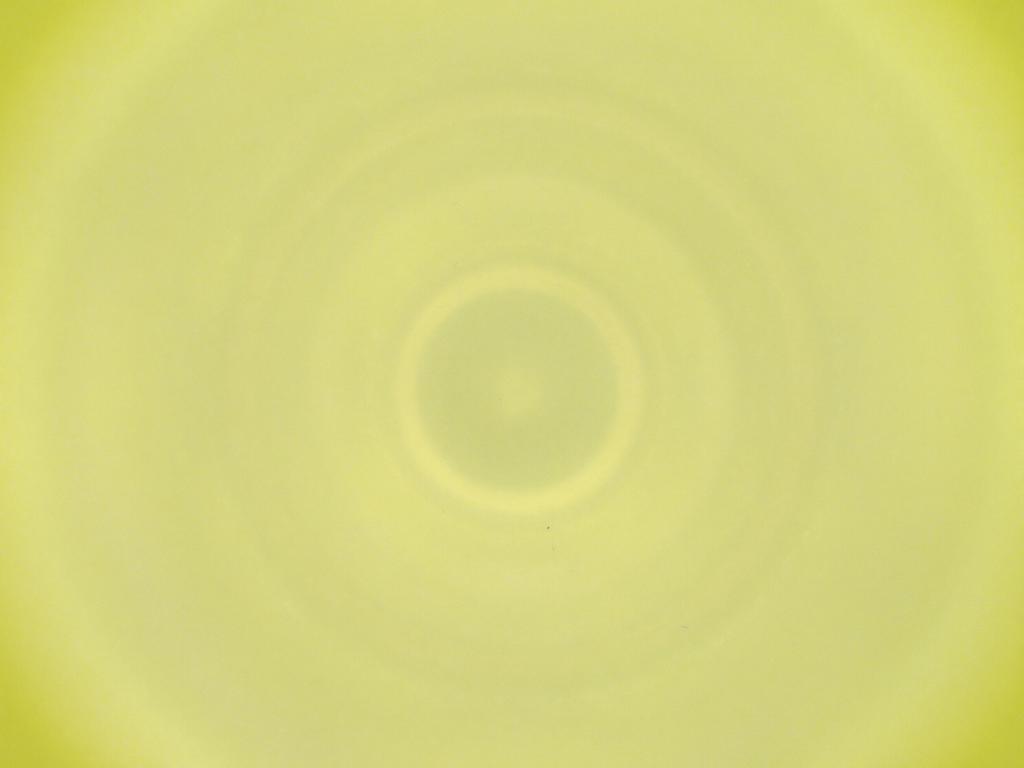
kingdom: Animalia
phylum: Arthropoda
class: Insecta
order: Diptera
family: Cecidomyiidae
